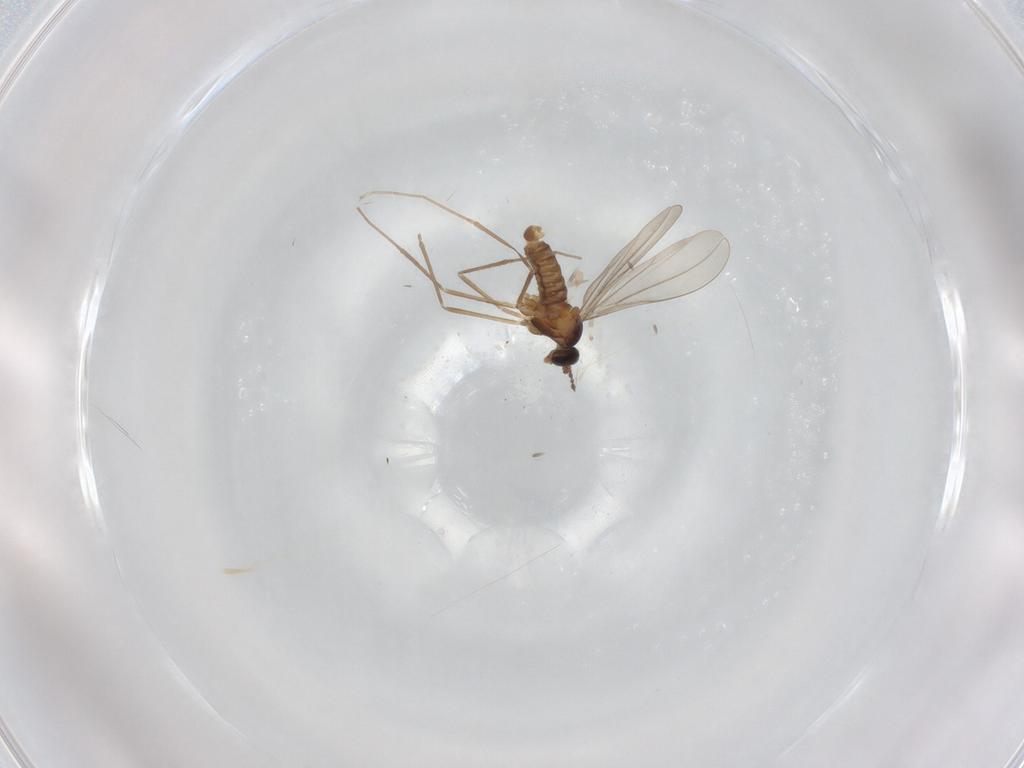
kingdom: Animalia
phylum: Arthropoda
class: Insecta
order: Diptera
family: Cecidomyiidae
